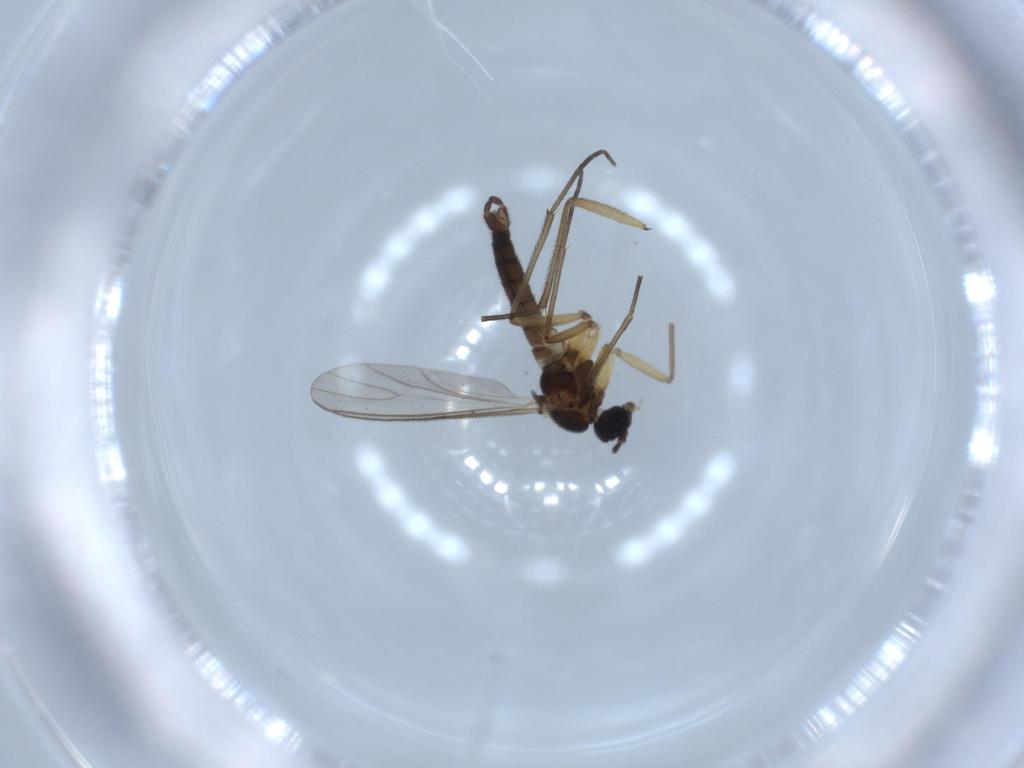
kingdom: Animalia
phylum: Arthropoda
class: Insecta
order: Diptera
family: Sciaridae
